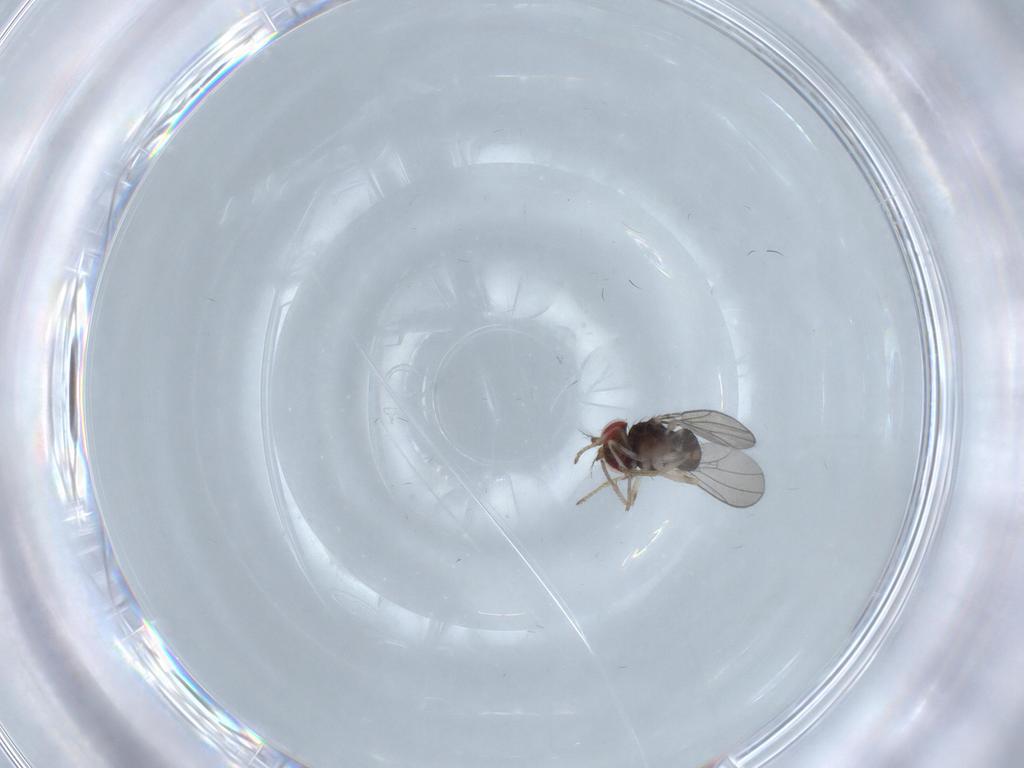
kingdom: Animalia
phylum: Arthropoda
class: Insecta
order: Diptera
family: Drosophilidae
